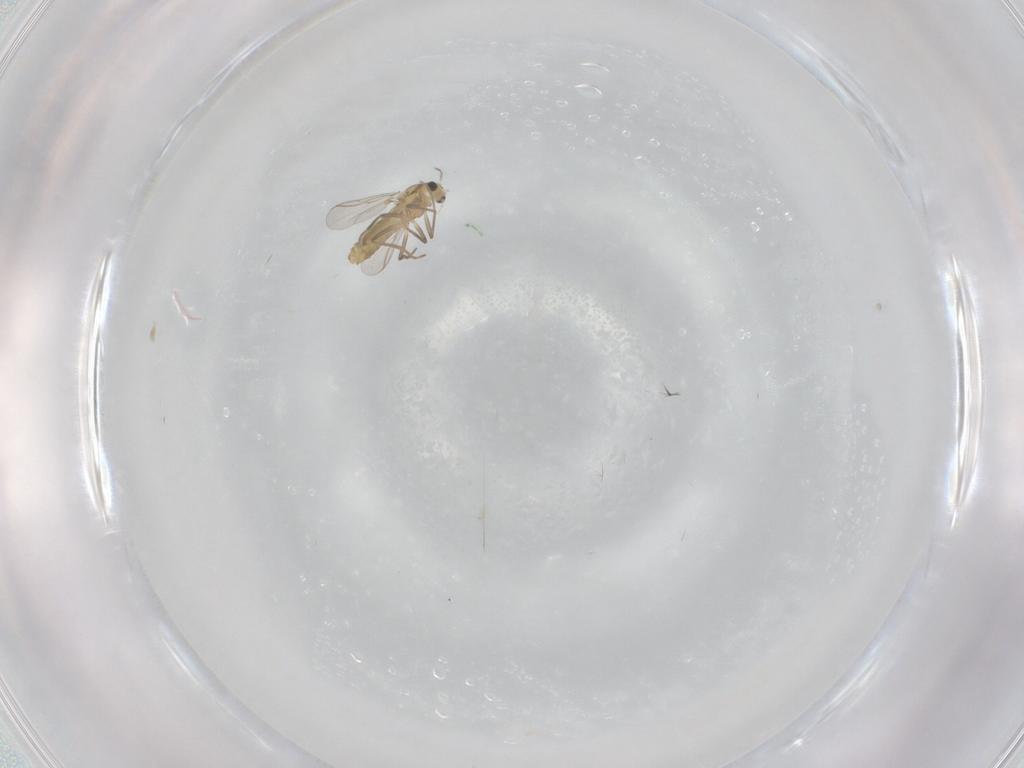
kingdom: Animalia
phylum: Arthropoda
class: Insecta
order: Diptera
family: Chironomidae
